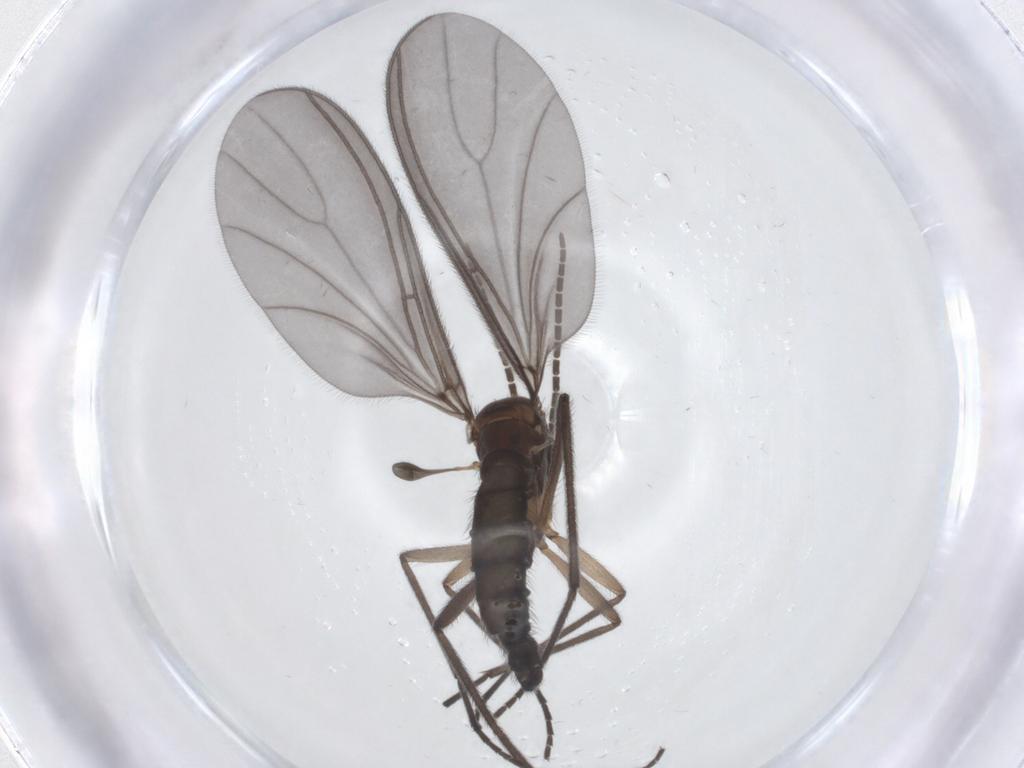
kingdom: Animalia
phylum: Arthropoda
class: Insecta
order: Diptera
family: Sciaridae
